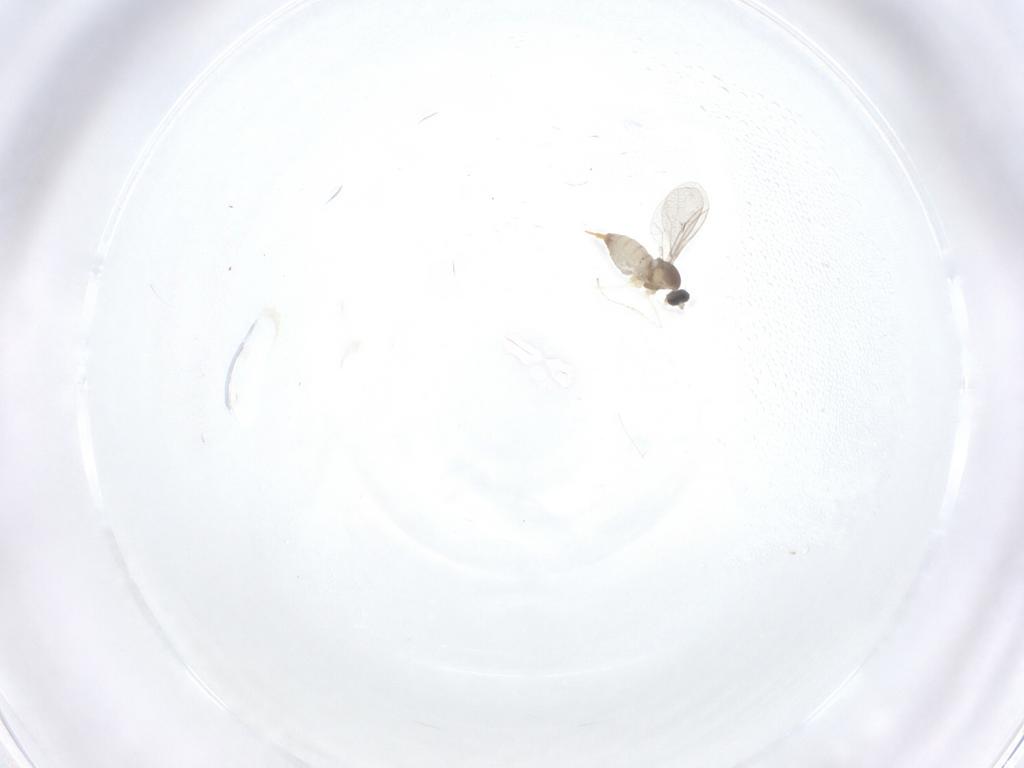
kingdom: Animalia
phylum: Arthropoda
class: Insecta
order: Diptera
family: Cecidomyiidae
